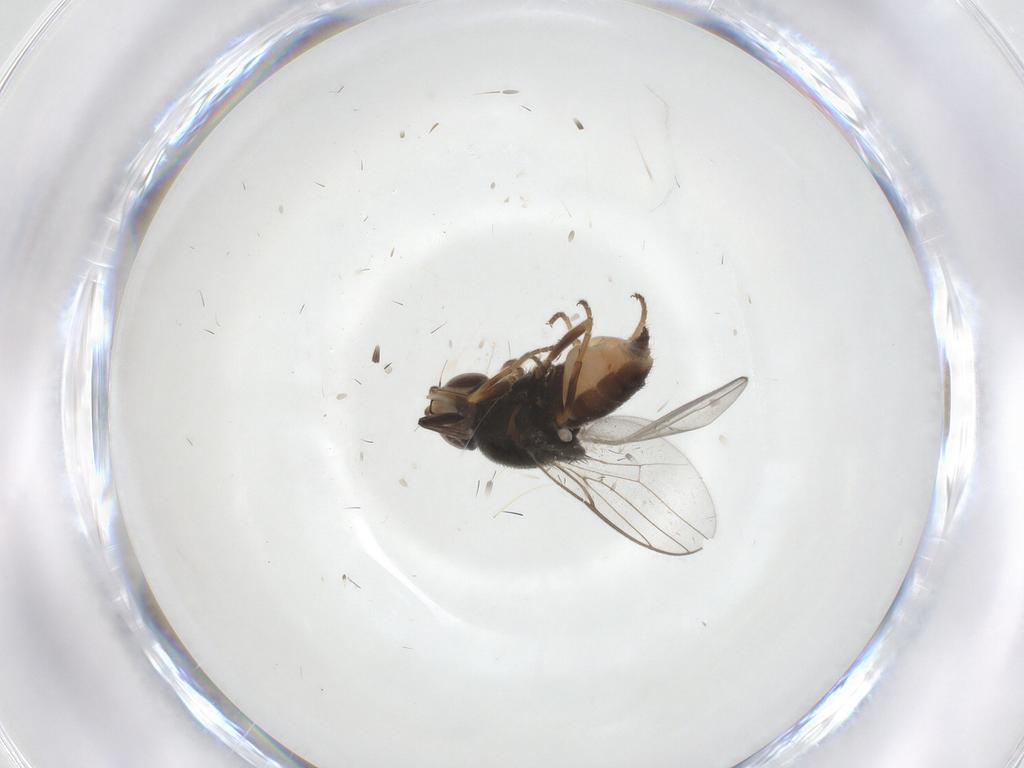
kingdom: Animalia
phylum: Arthropoda
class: Insecta
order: Diptera
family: Chloropidae
